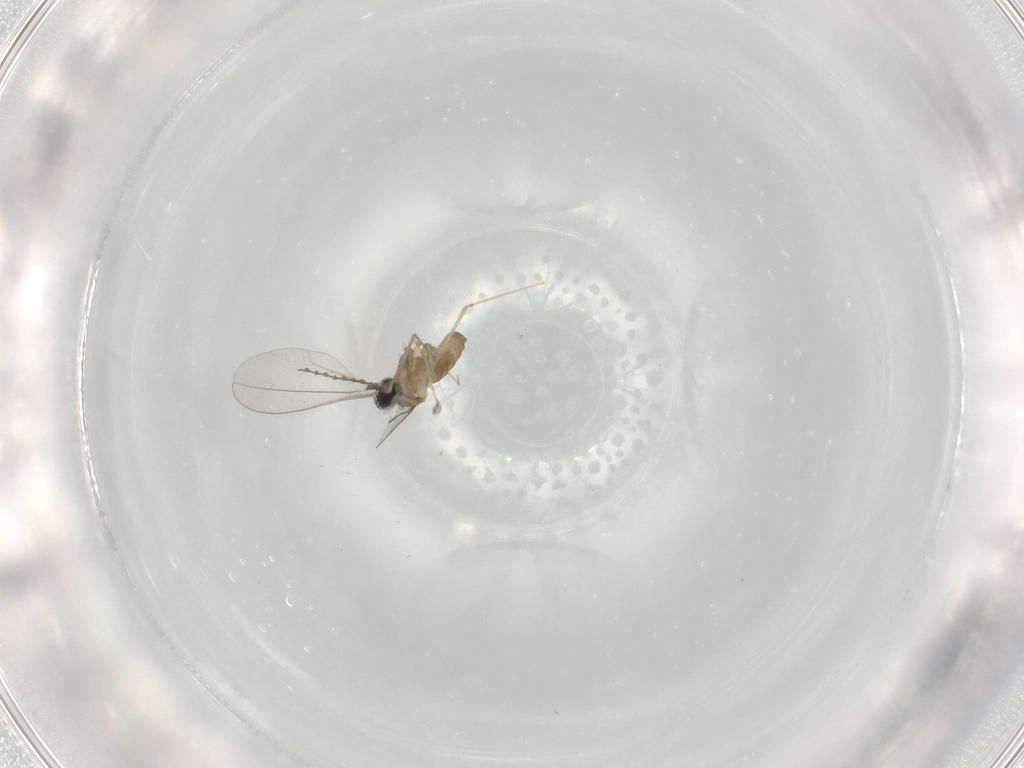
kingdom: Animalia
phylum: Arthropoda
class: Insecta
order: Diptera
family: Cecidomyiidae
